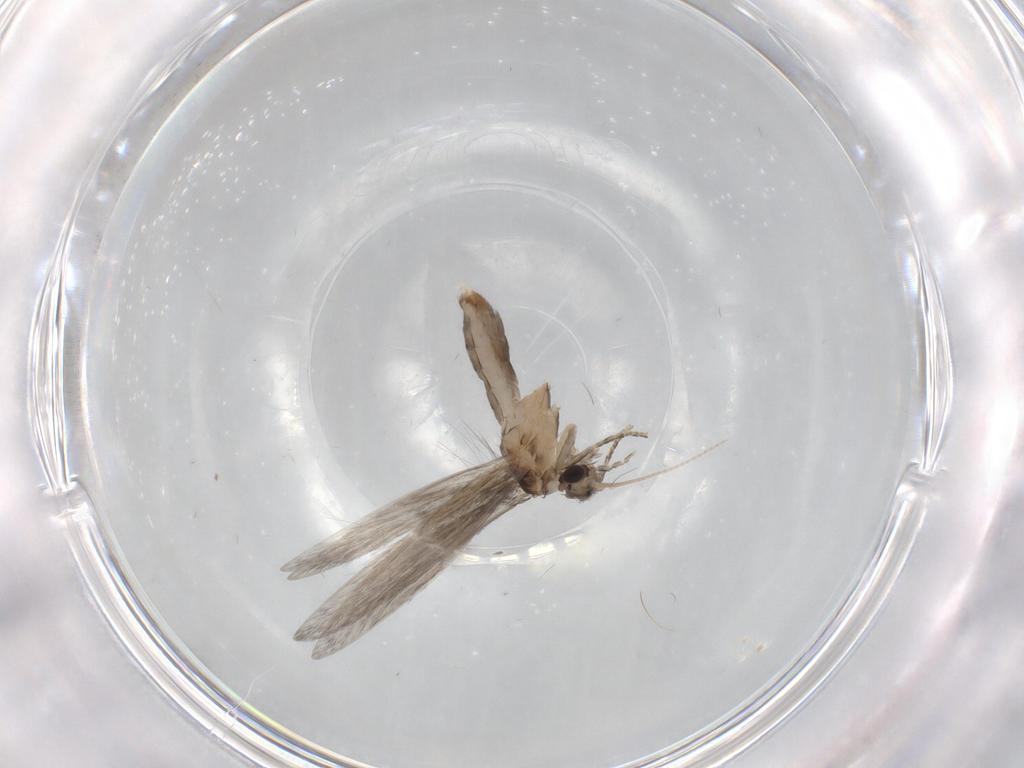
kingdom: Animalia
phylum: Arthropoda
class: Insecta
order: Trichoptera
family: Hydroptilidae
